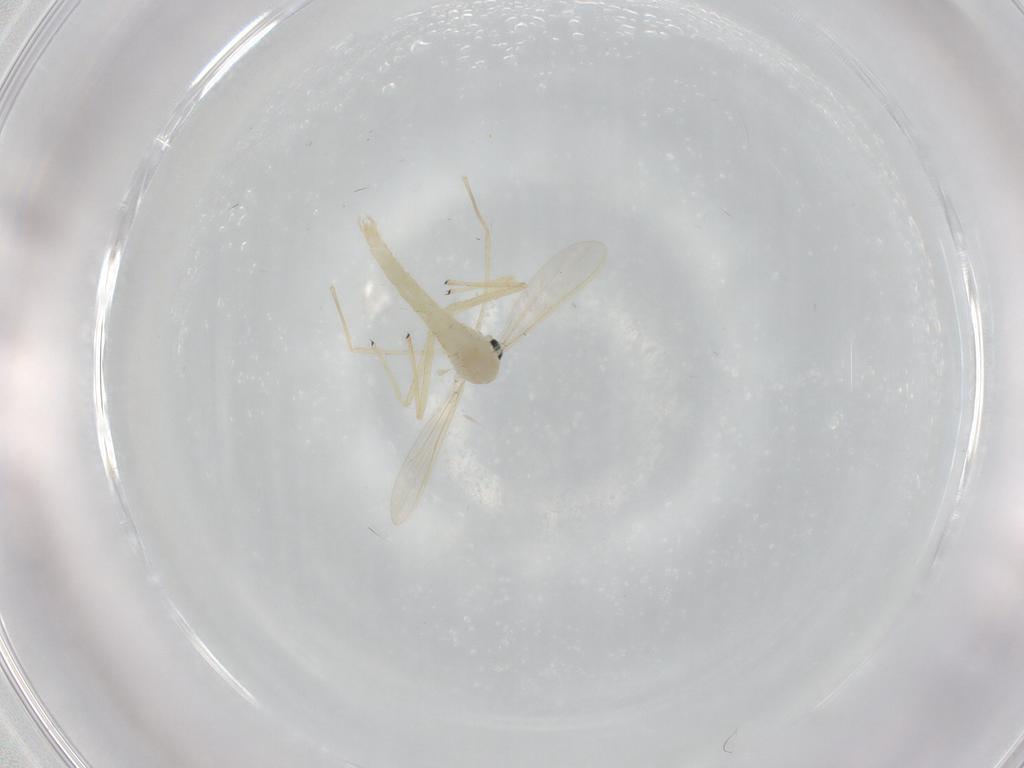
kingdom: Animalia
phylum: Arthropoda
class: Insecta
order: Diptera
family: Chironomidae
